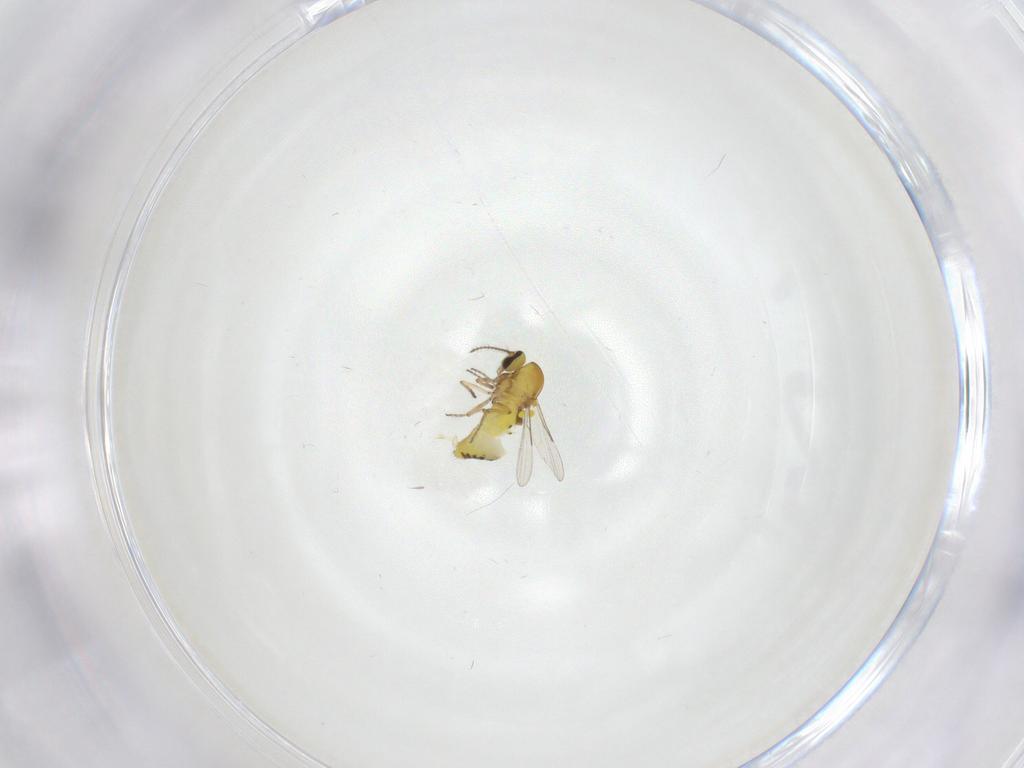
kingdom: Animalia
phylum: Arthropoda
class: Insecta
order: Diptera
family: Ceratopogonidae
